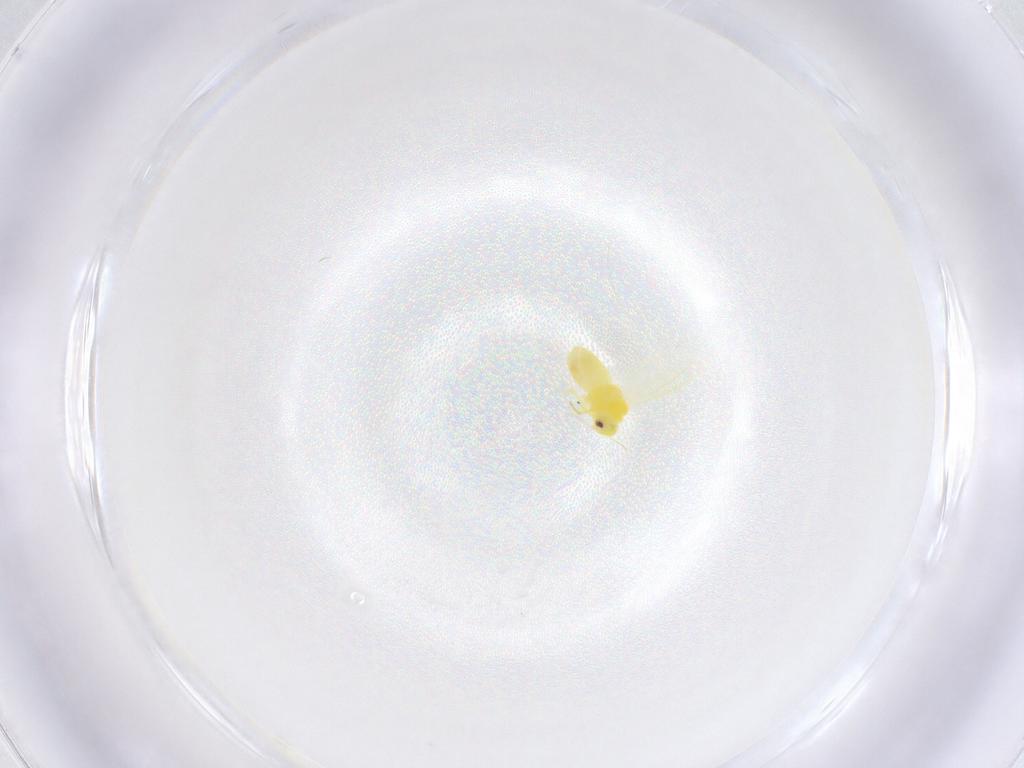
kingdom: Animalia
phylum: Arthropoda
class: Insecta
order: Hemiptera
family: Aleyrodidae
